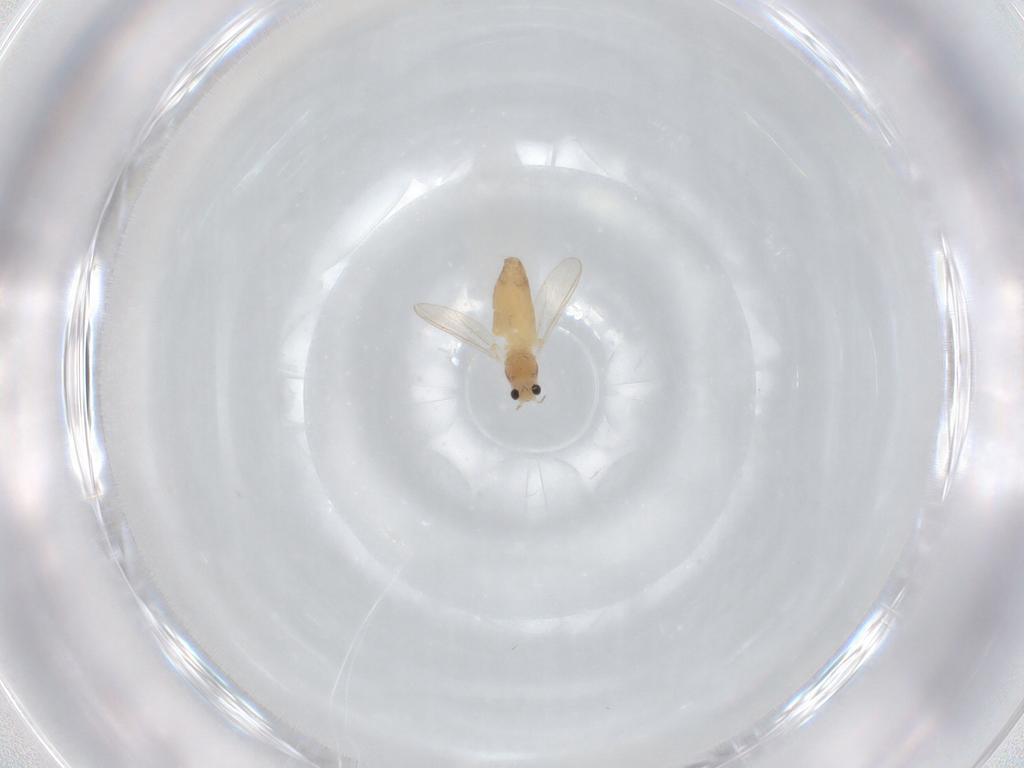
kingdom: Animalia
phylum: Arthropoda
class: Insecta
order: Diptera
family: Chironomidae
